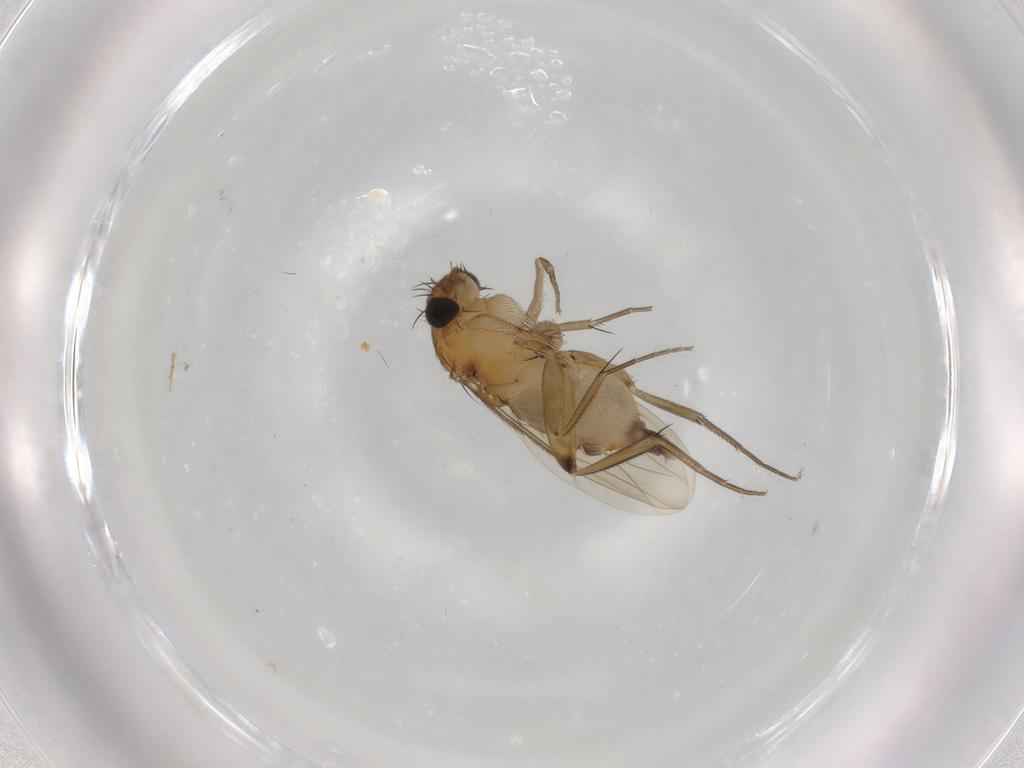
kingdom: Animalia
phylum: Arthropoda
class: Insecta
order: Diptera
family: Phoridae
